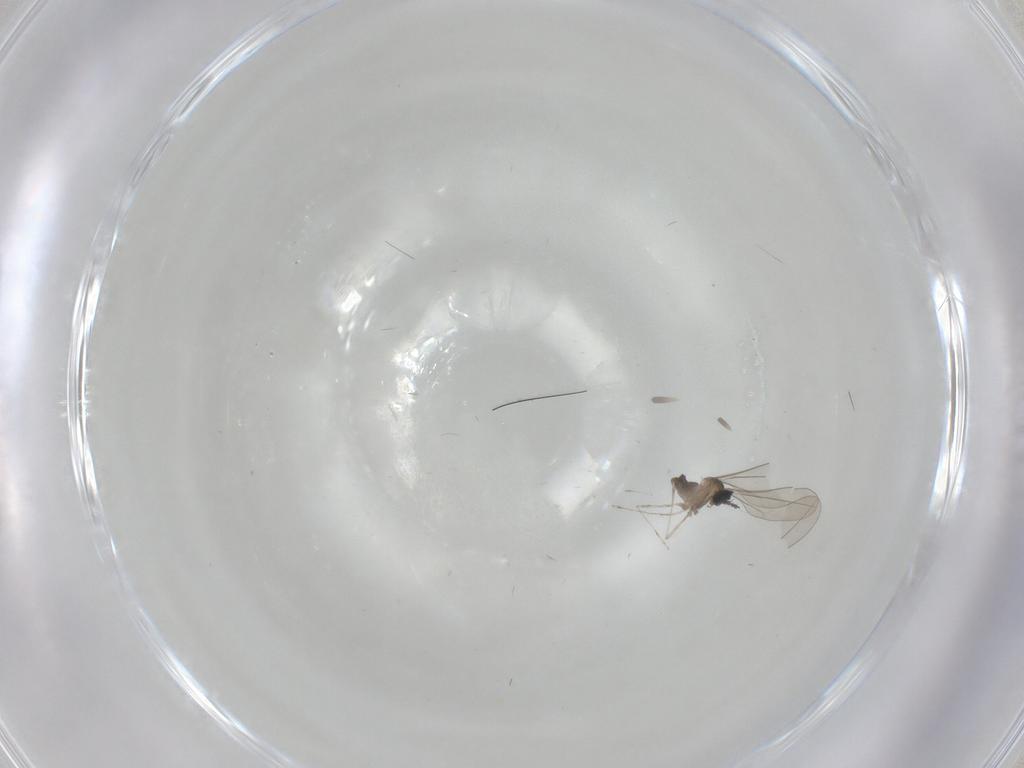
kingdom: Animalia
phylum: Arthropoda
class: Insecta
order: Diptera
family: Cecidomyiidae
